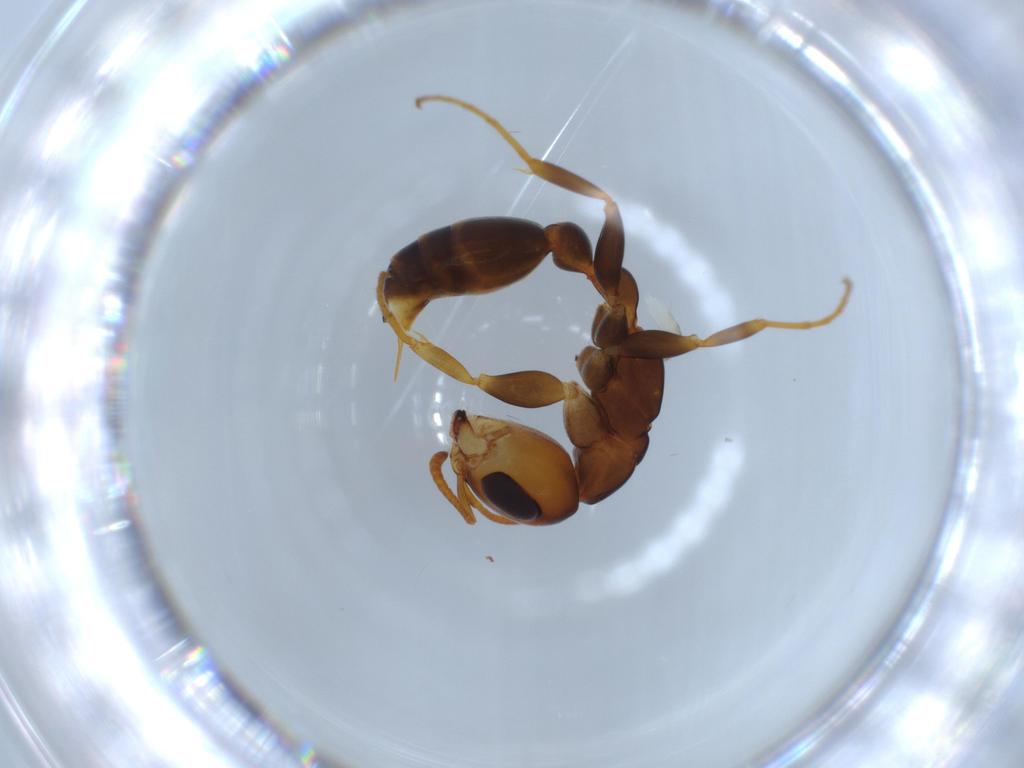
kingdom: Animalia
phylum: Arthropoda
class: Insecta
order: Hymenoptera
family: Formicidae
